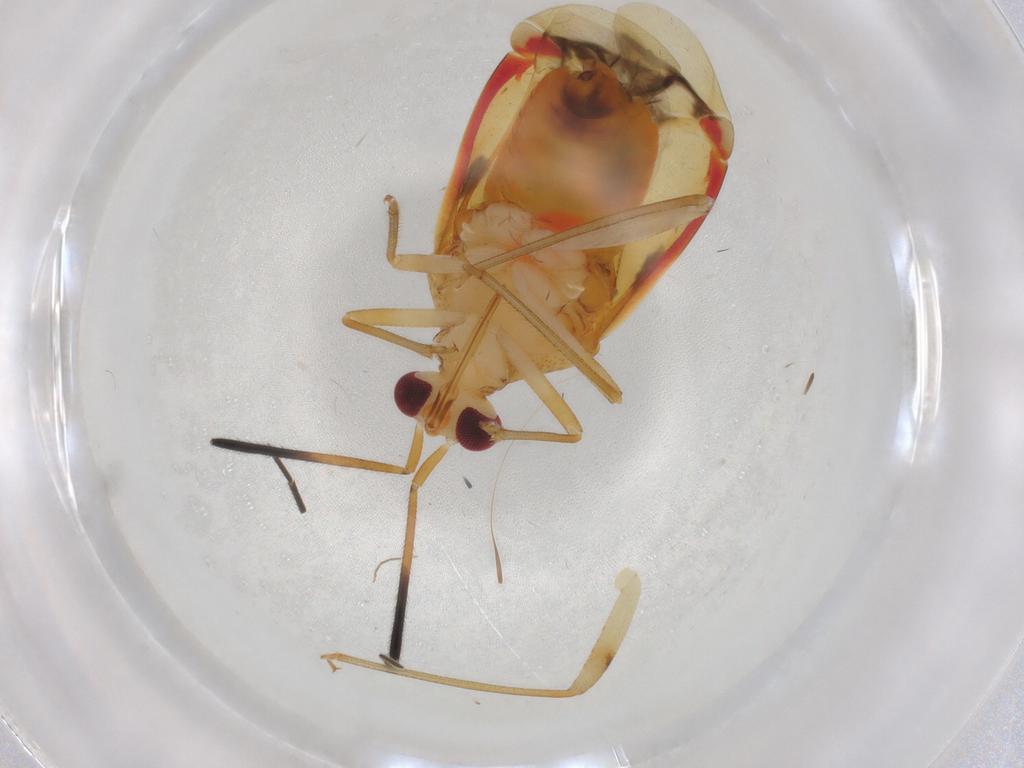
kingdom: Animalia
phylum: Arthropoda
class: Insecta
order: Hemiptera
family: Miridae
